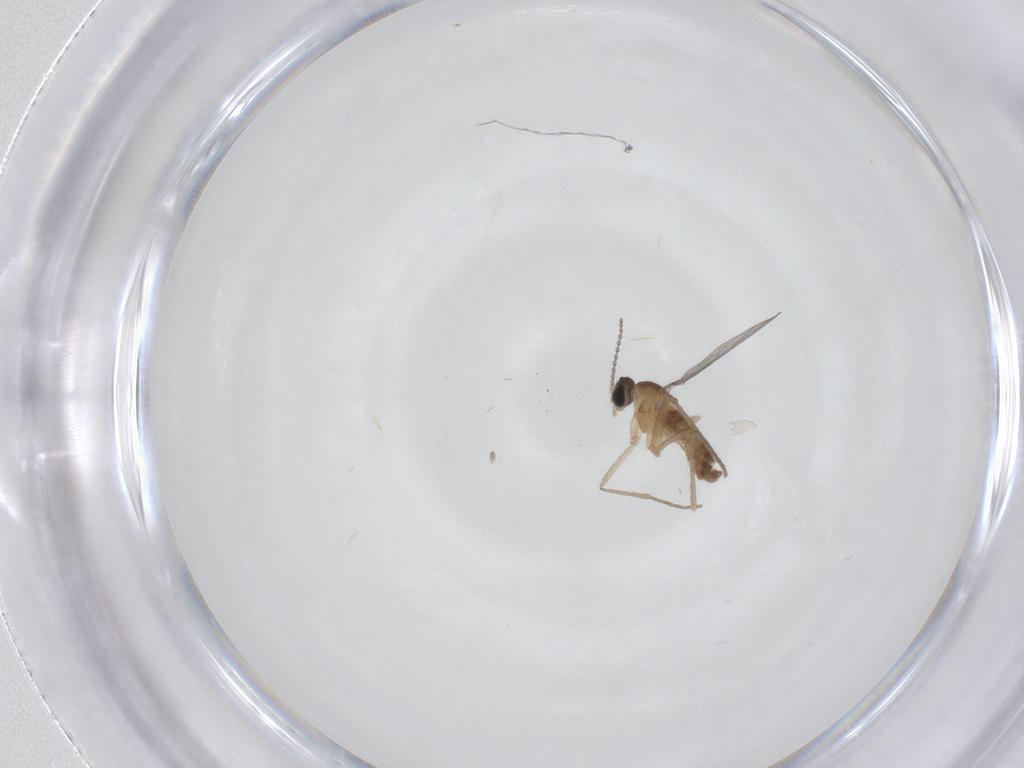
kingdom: Animalia
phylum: Arthropoda
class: Insecta
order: Diptera
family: Cecidomyiidae
